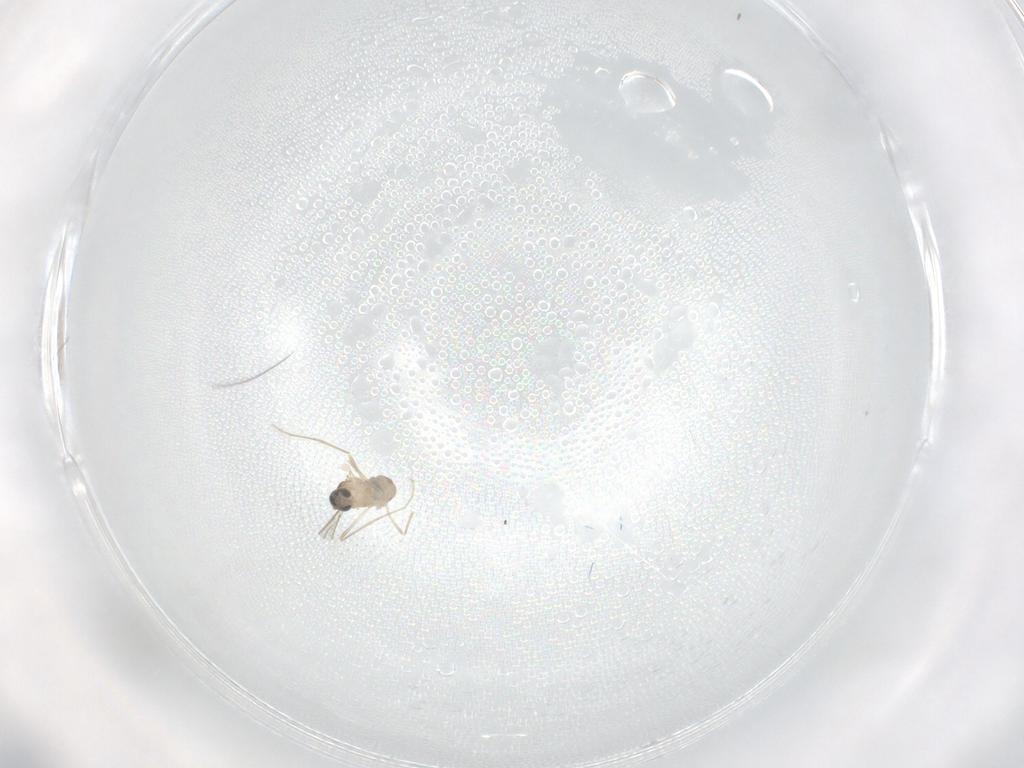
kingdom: Animalia
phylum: Arthropoda
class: Insecta
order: Diptera
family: Cecidomyiidae
